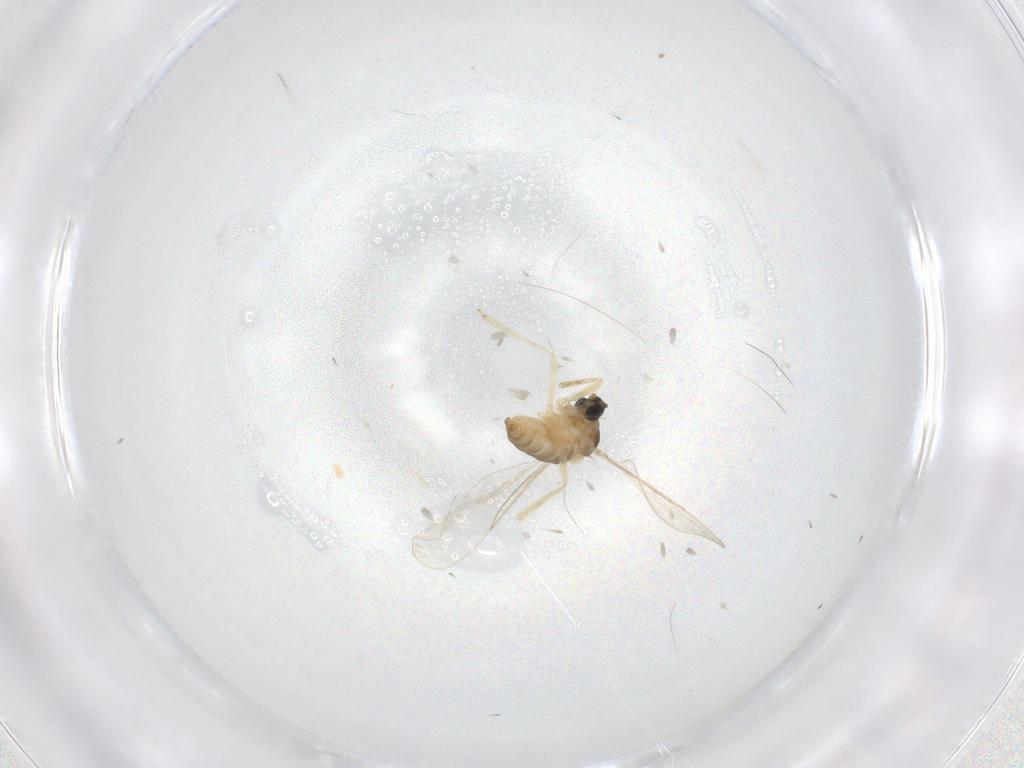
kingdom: Animalia
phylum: Arthropoda
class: Insecta
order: Diptera
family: Cecidomyiidae
